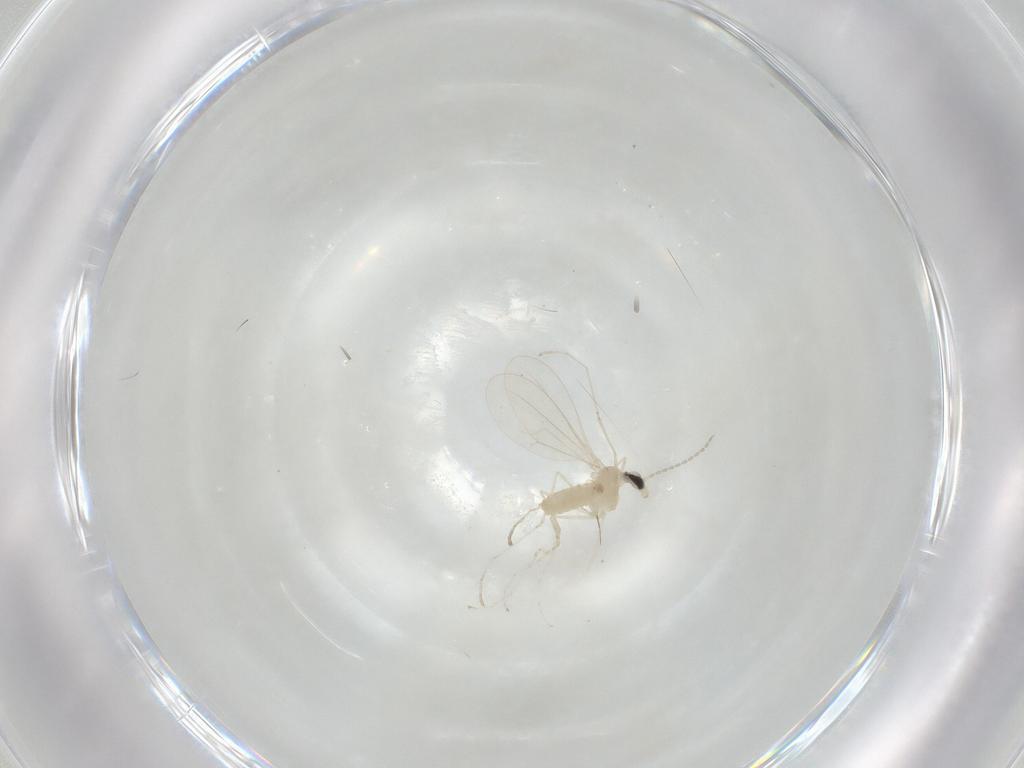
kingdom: Animalia
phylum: Arthropoda
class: Insecta
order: Diptera
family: Cecidomyiidae
